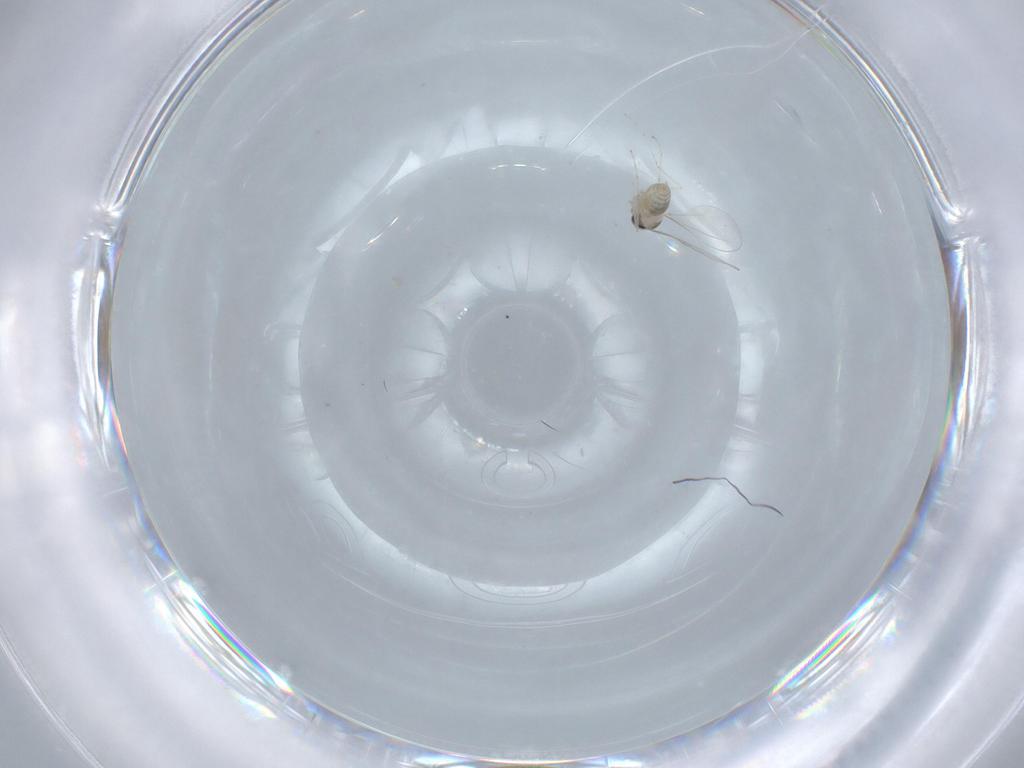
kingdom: Animalia
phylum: Arthropoda
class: Insecta
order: Diptera
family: Cecidomyiidae
